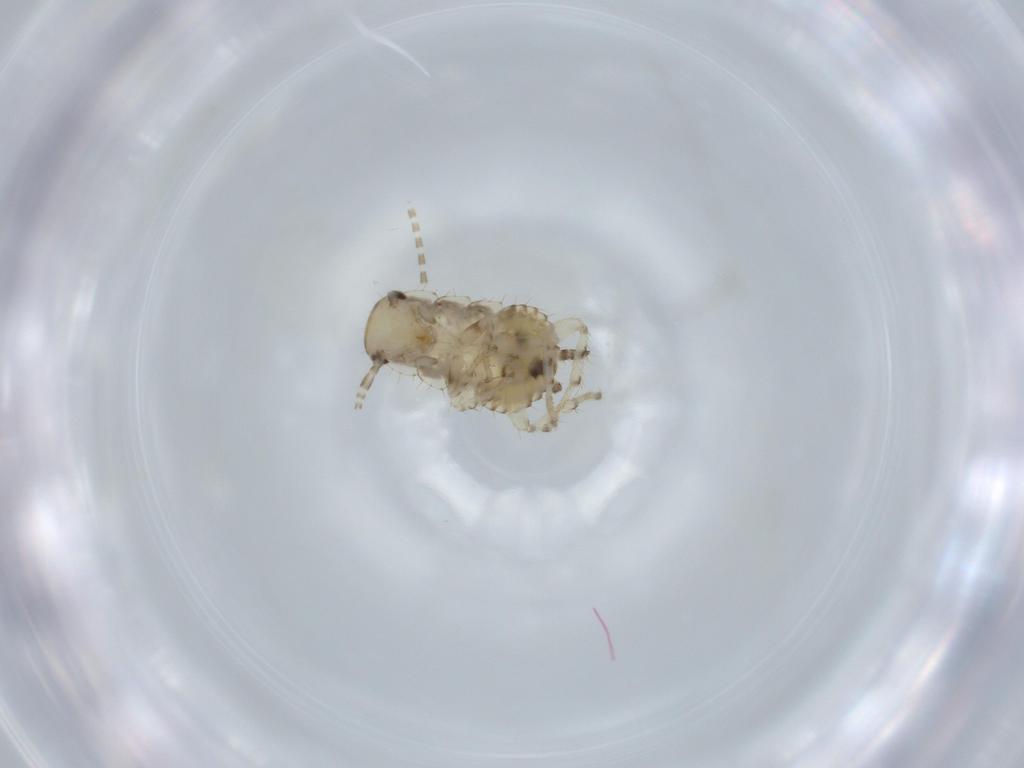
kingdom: Animalia
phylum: Arthropoda
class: Insecta
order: Blattodea
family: Ectobiidae
